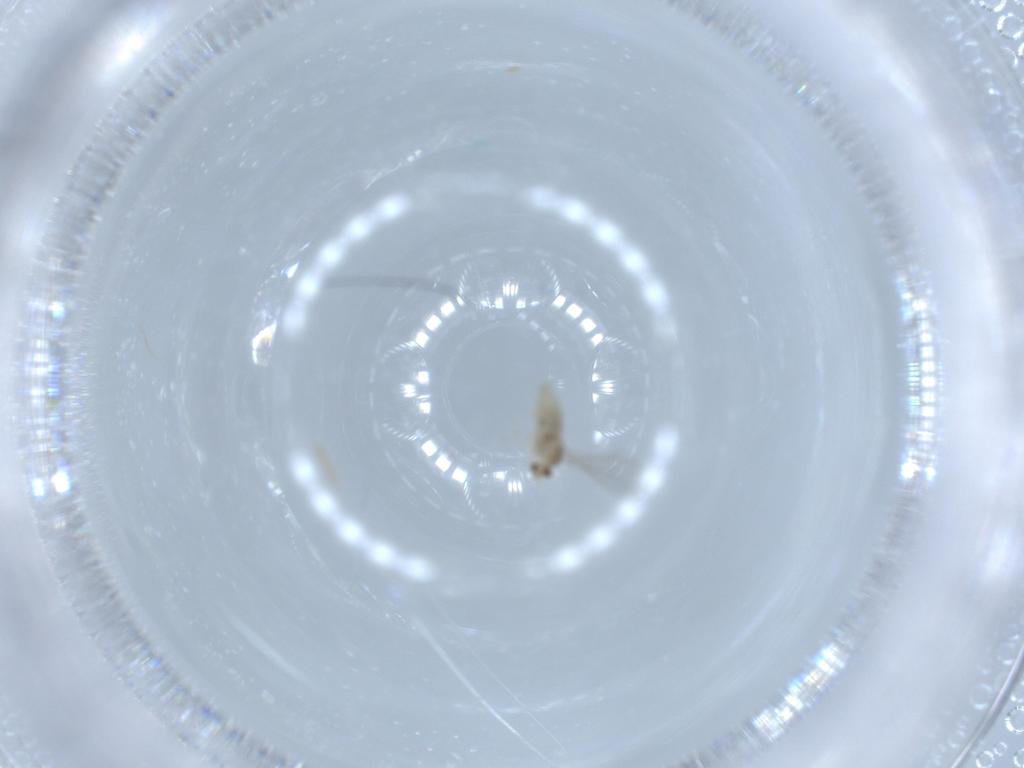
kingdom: Animalia
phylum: Arthropoda
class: Insecta
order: Diptera
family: Cecidomyiidae
